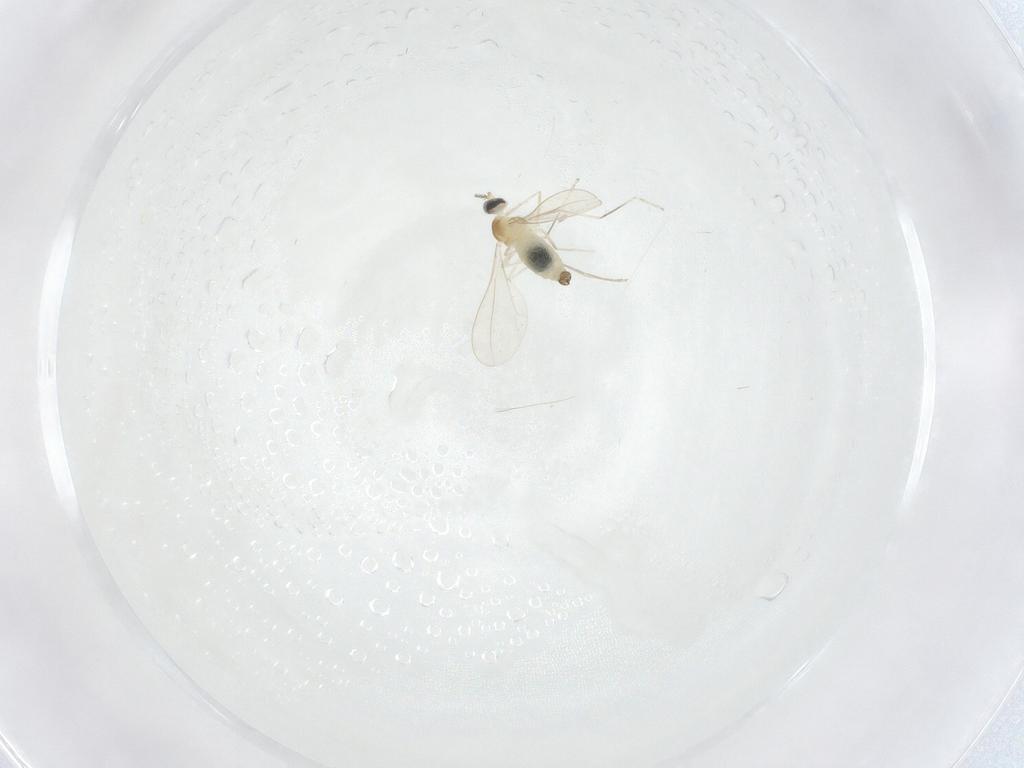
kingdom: Animalia
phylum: Arthropoda
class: Insecta
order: Diptera
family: Cecidomyiidae
